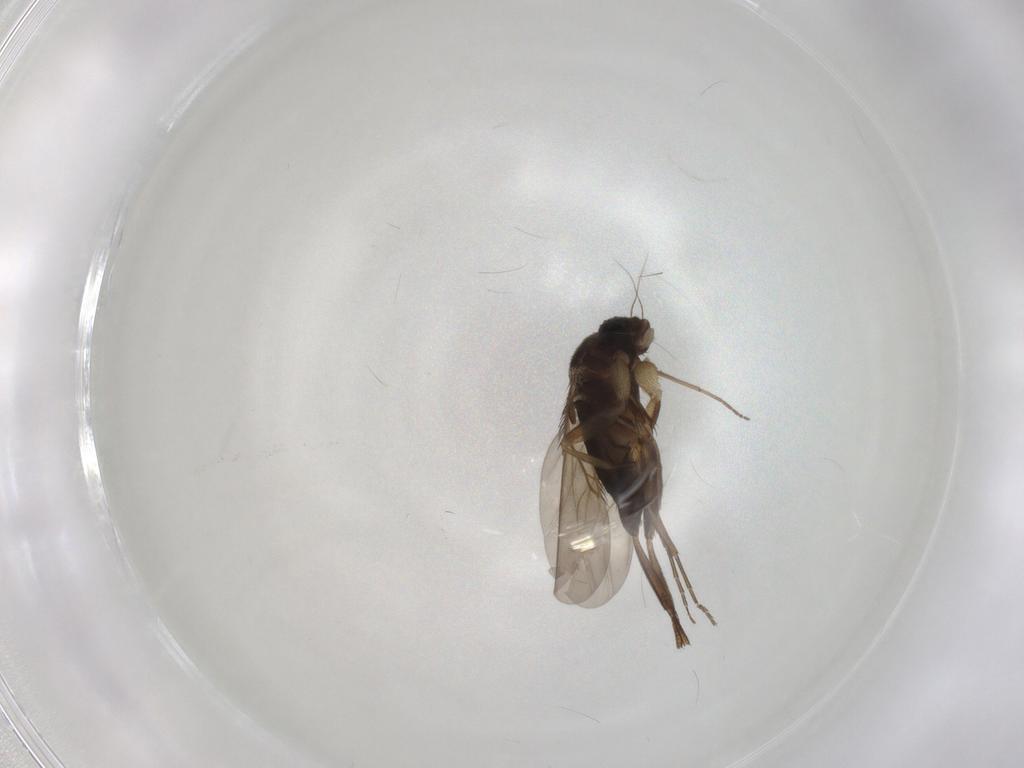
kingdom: Animalia
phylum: Arthropoda
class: Insecta
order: Diptera
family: Phoridae
